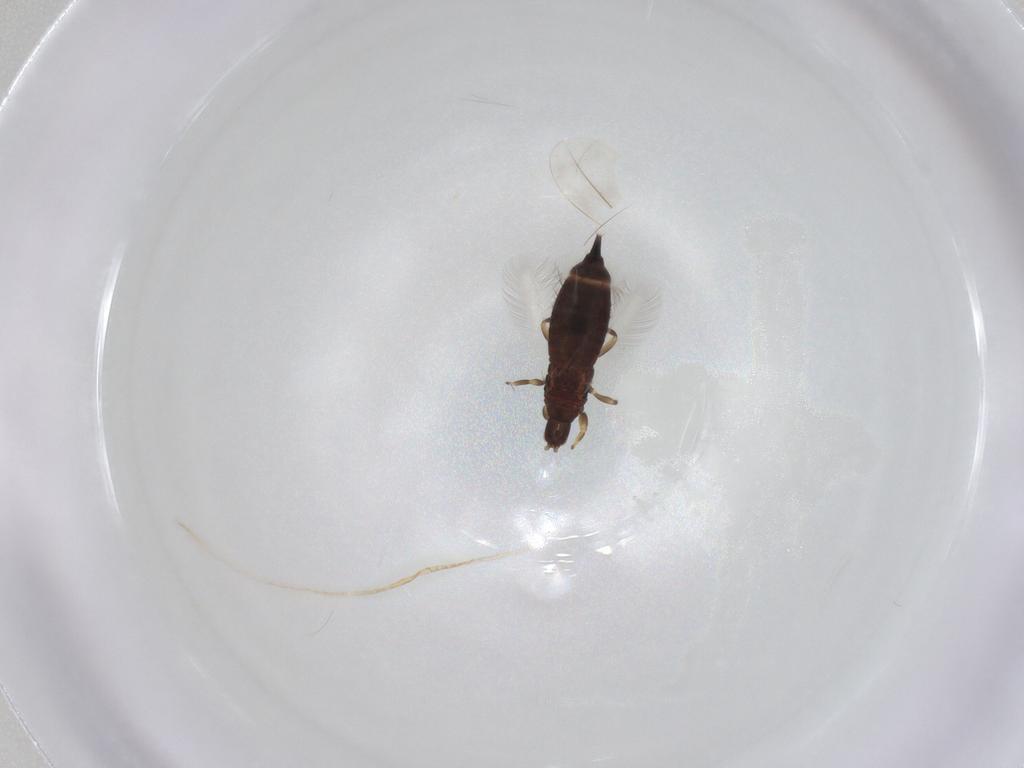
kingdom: Animalia
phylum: Arthropoda
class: Insecta
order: Thysanoptera
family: Phlaeothripidae
